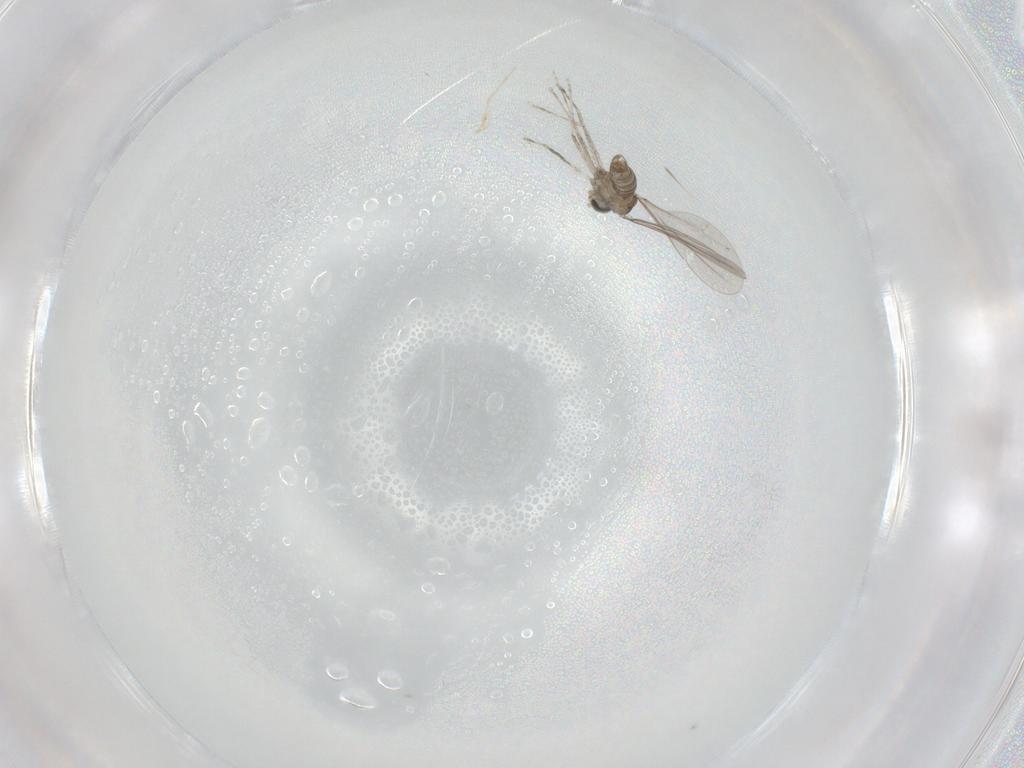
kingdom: Animalia
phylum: Arthropoda
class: Insecta
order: Diptera
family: Cecidomyiidae
